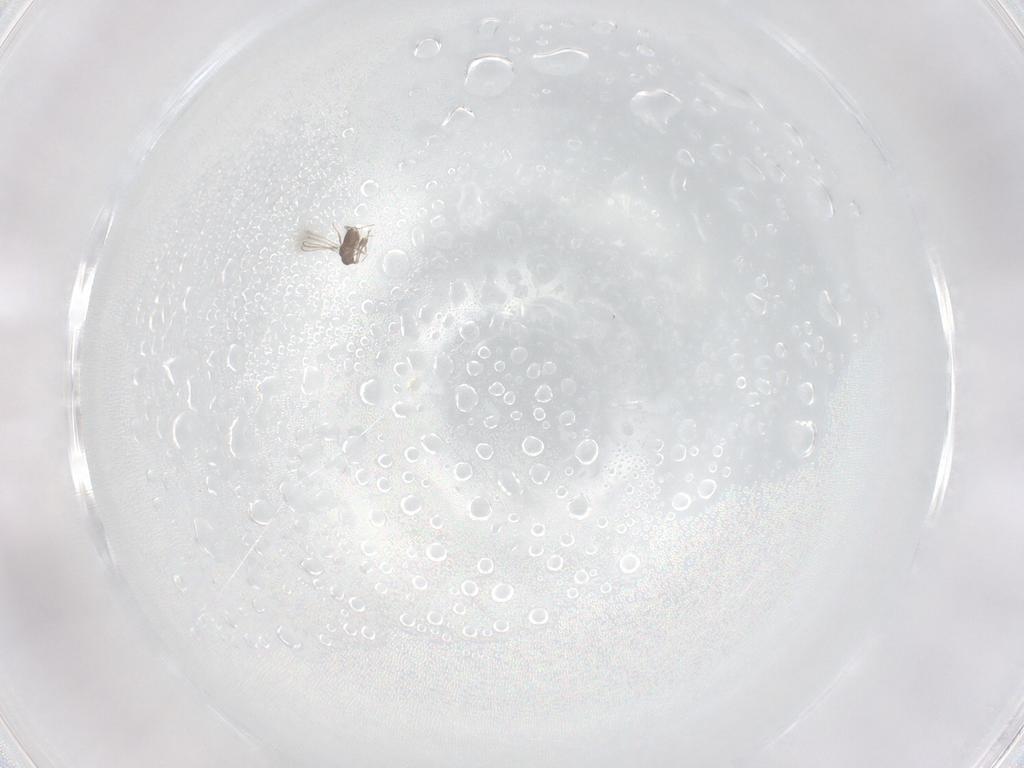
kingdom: Animalia
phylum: Arthropoda
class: Insecta
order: Hymenoptera
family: Mymaridae
